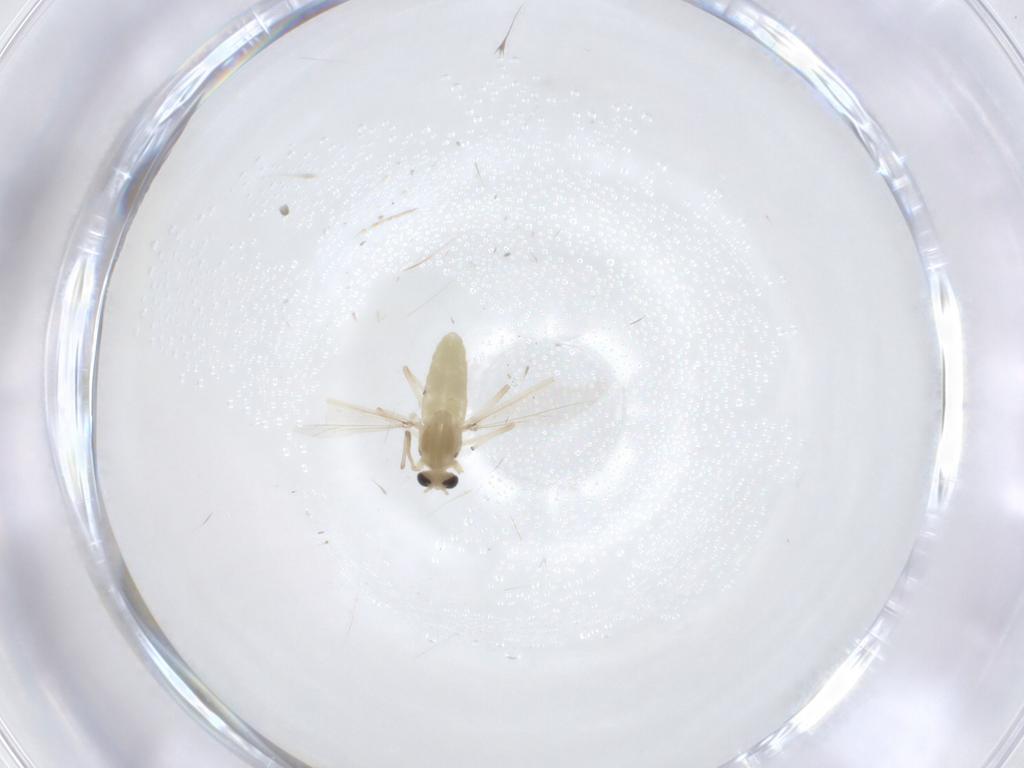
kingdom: Animalia
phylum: Arthropoda
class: Insecta
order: Diptera
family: Chironomidae
